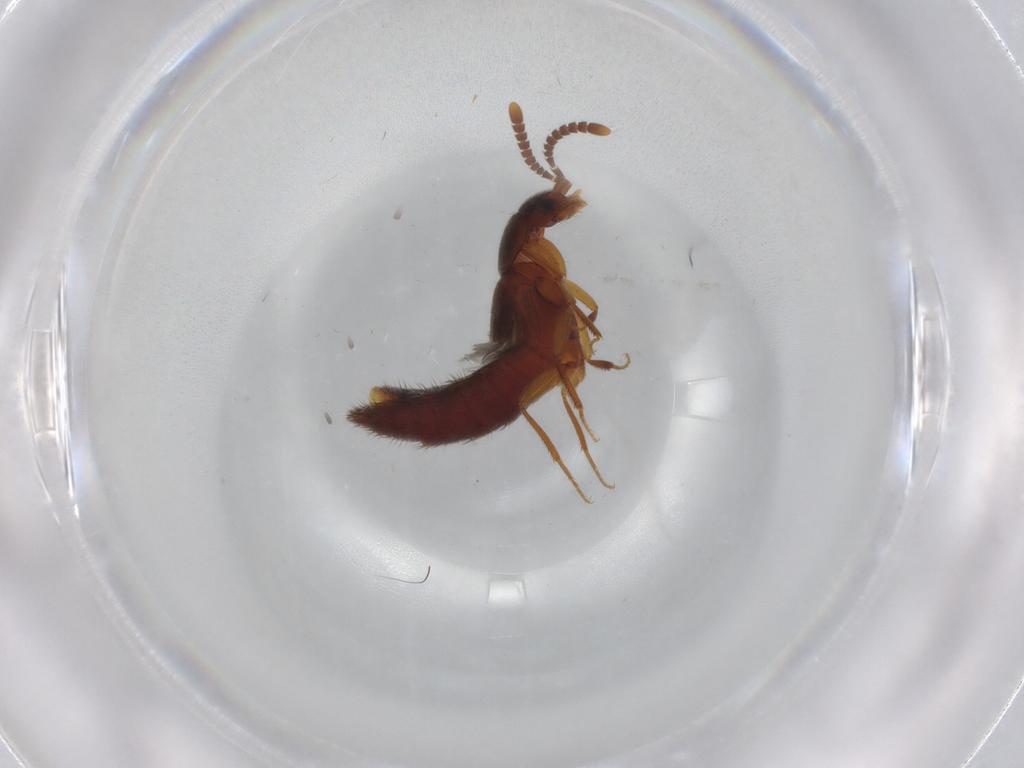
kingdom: Animalia
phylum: Arthropoda
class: Insecta
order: Coleoptera
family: Staphylinidae
